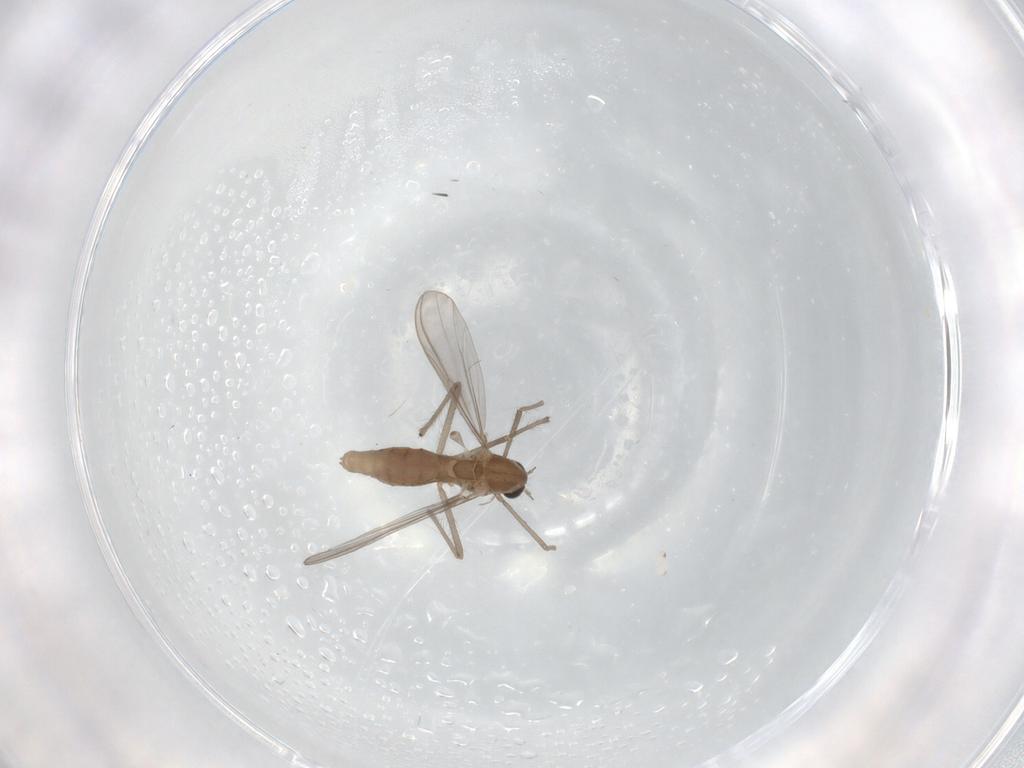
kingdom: Animalia
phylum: Arthropoda
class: Insecta
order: Diptera
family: Chironomidae
